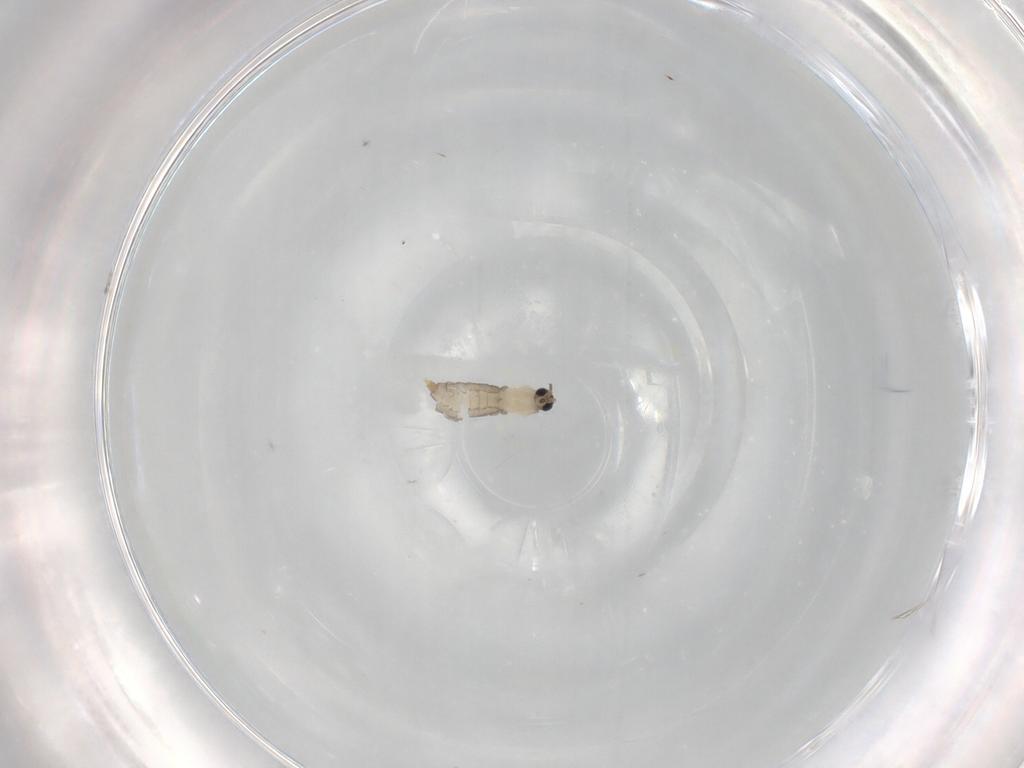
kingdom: Animalia
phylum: Arthropoda
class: Insecta
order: Diptera
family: Cecidomyiidae
